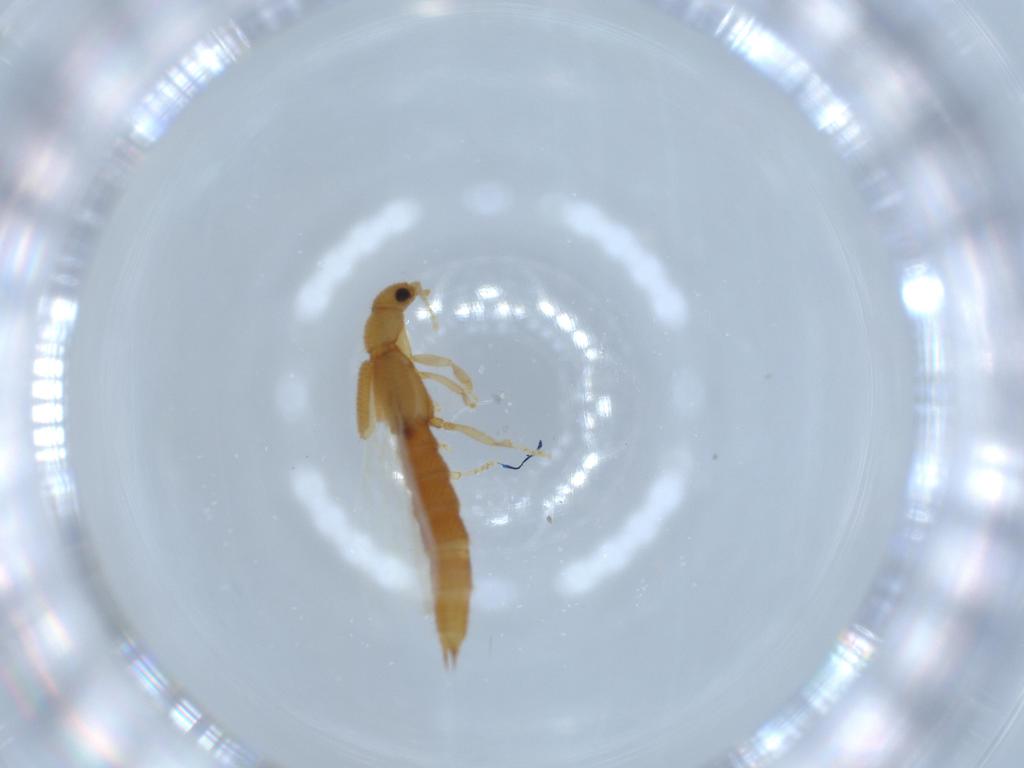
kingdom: Animalia
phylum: Arthropoda
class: Insecta
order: Coleoptera
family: Staphylinidae
